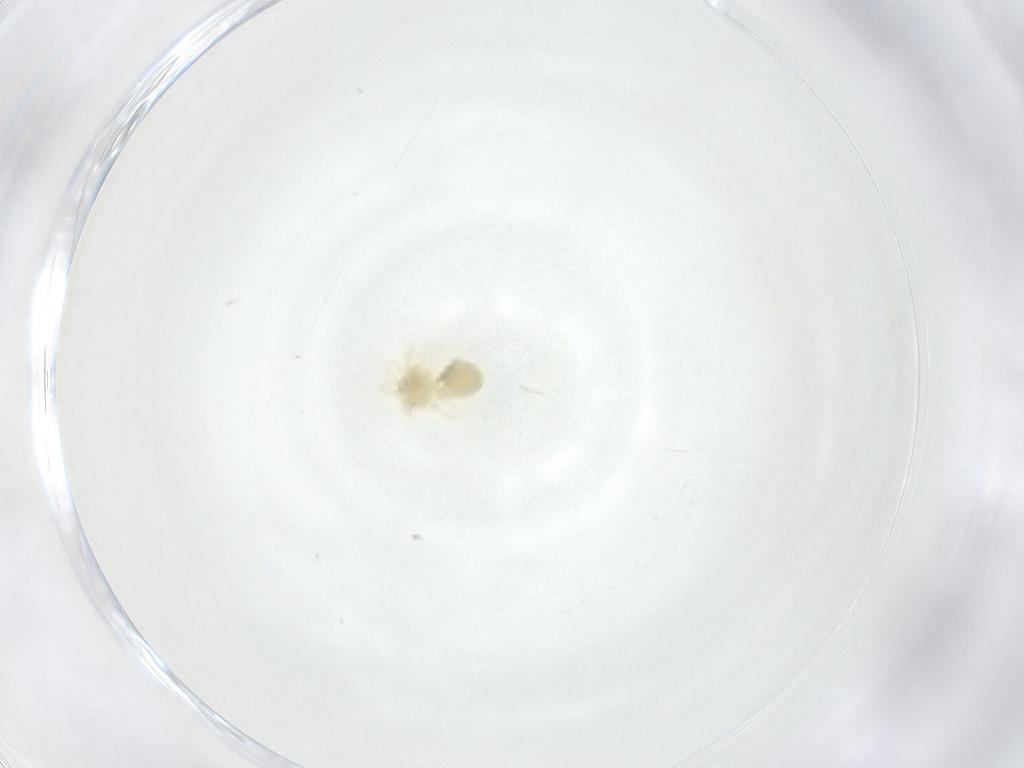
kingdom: Animalia
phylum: Arthropoda
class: Arachnida
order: Trombidiformes
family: Anystidae
